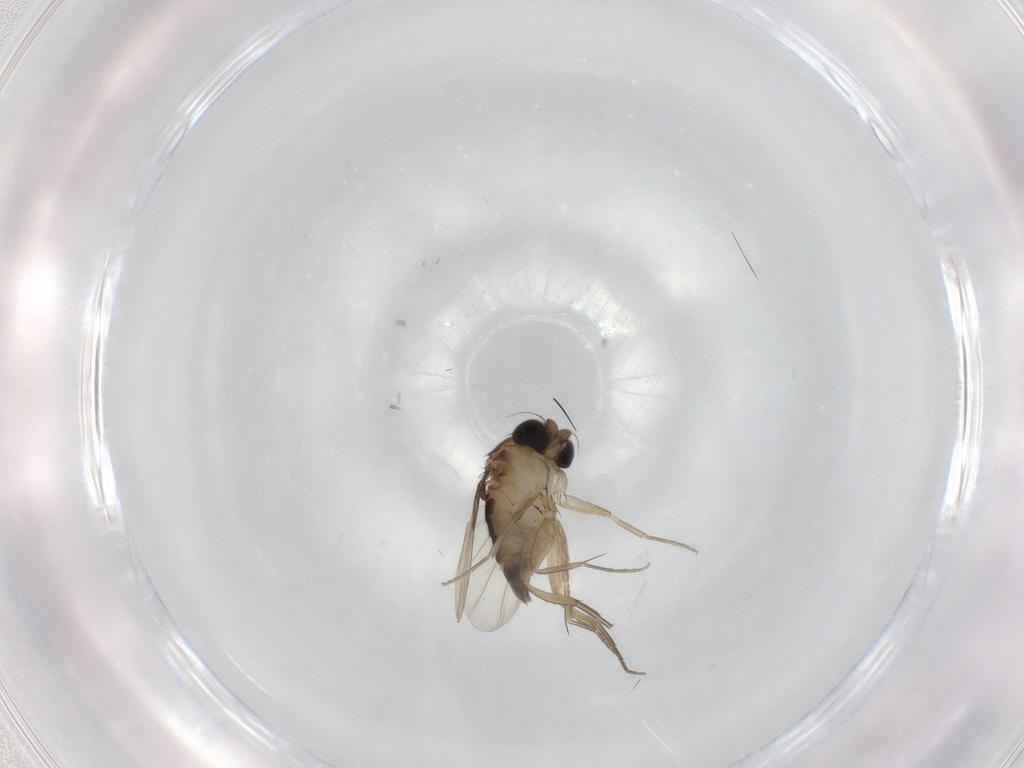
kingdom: Animalia
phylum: Arthropoda
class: Insecta
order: Diptera
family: Phoridae
